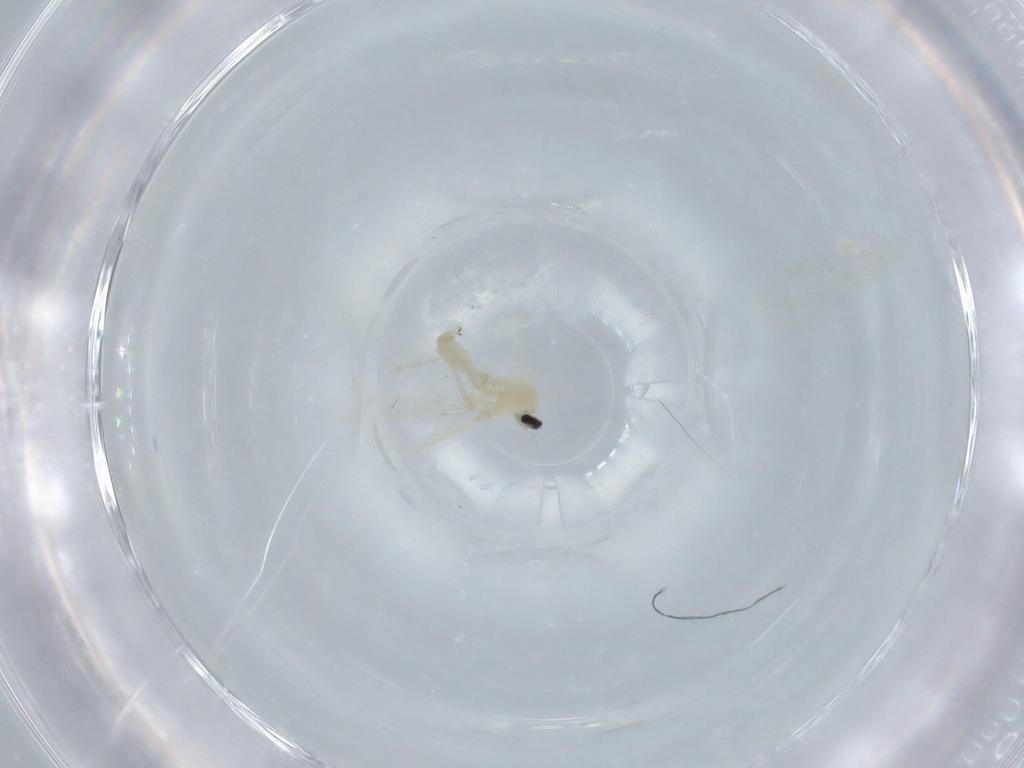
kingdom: Animalia
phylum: Arthropoda
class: Insecta
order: Diptera
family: Cecidomyiidae
